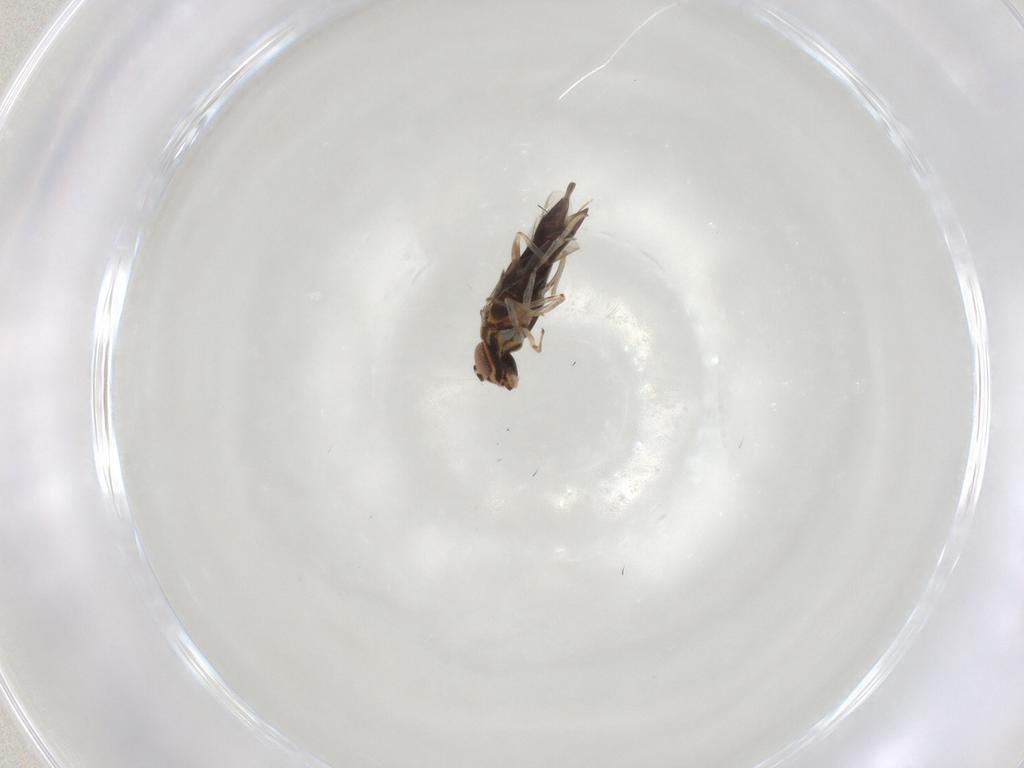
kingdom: Animalia
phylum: Arthropoda
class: Insecta
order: Hymenoptera
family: Encyrtidae
